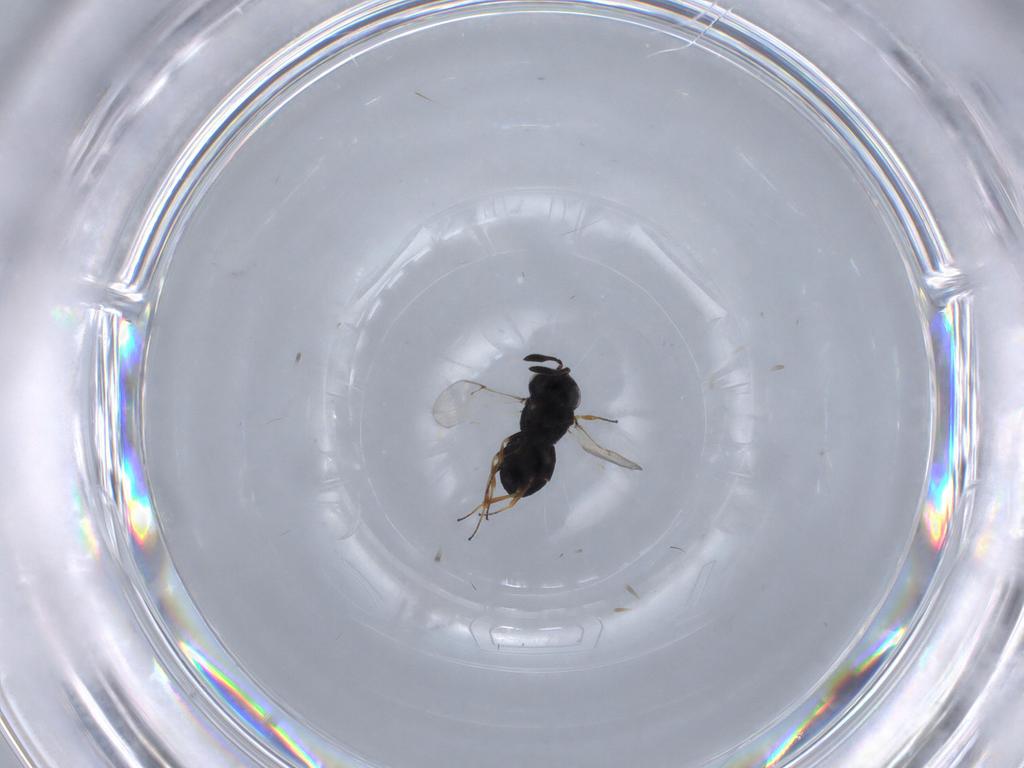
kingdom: Animalia
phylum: Arthropoda
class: Insecta
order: Hymenoptera
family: Scelionidae
